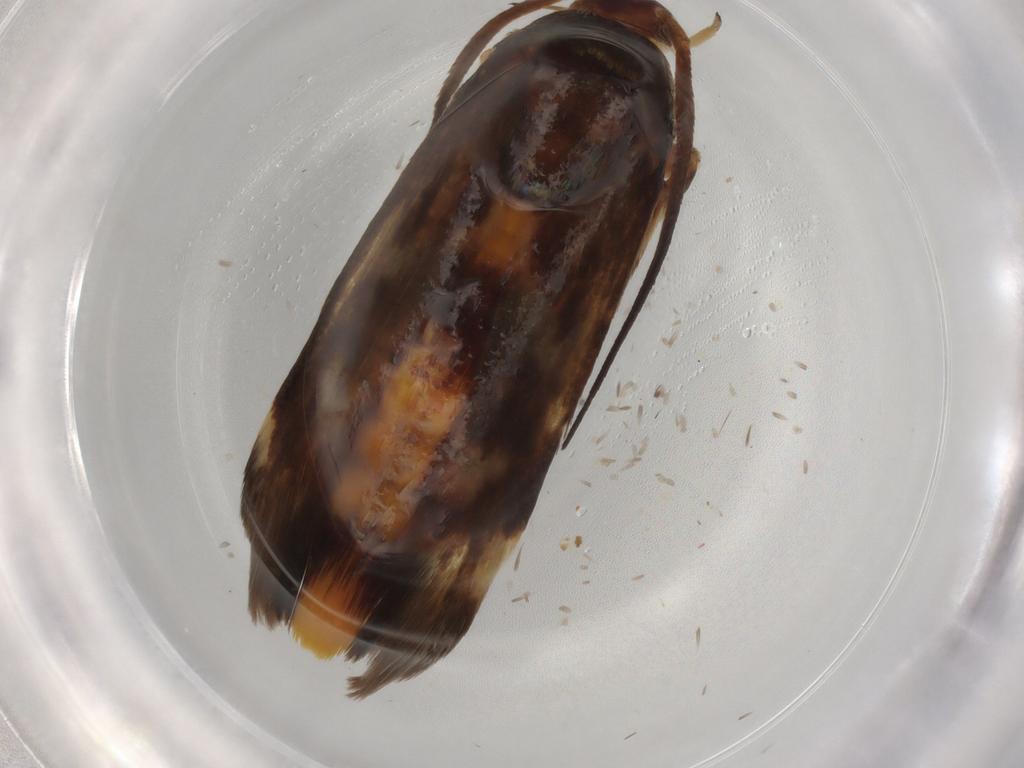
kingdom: Animalia
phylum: Arthropoda
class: Insecta
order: Lepidoptera
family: Scythrididae
